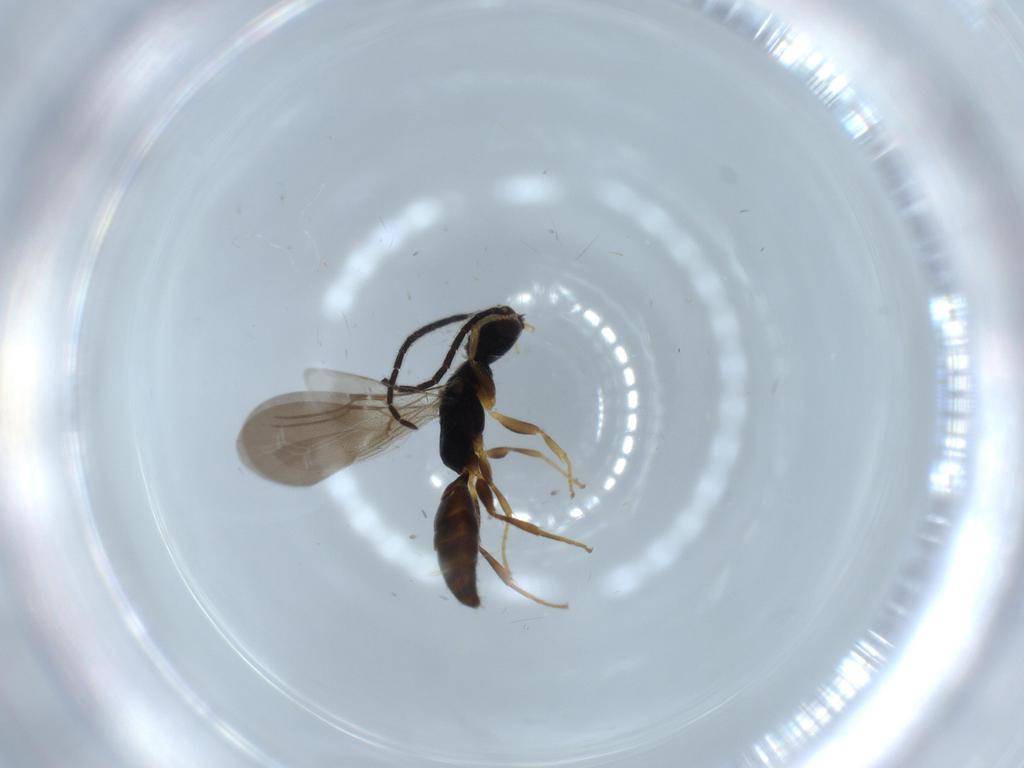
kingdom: Animalia
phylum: Arthropoda
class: Insecta
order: Hymenoptera
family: Bethylidae
